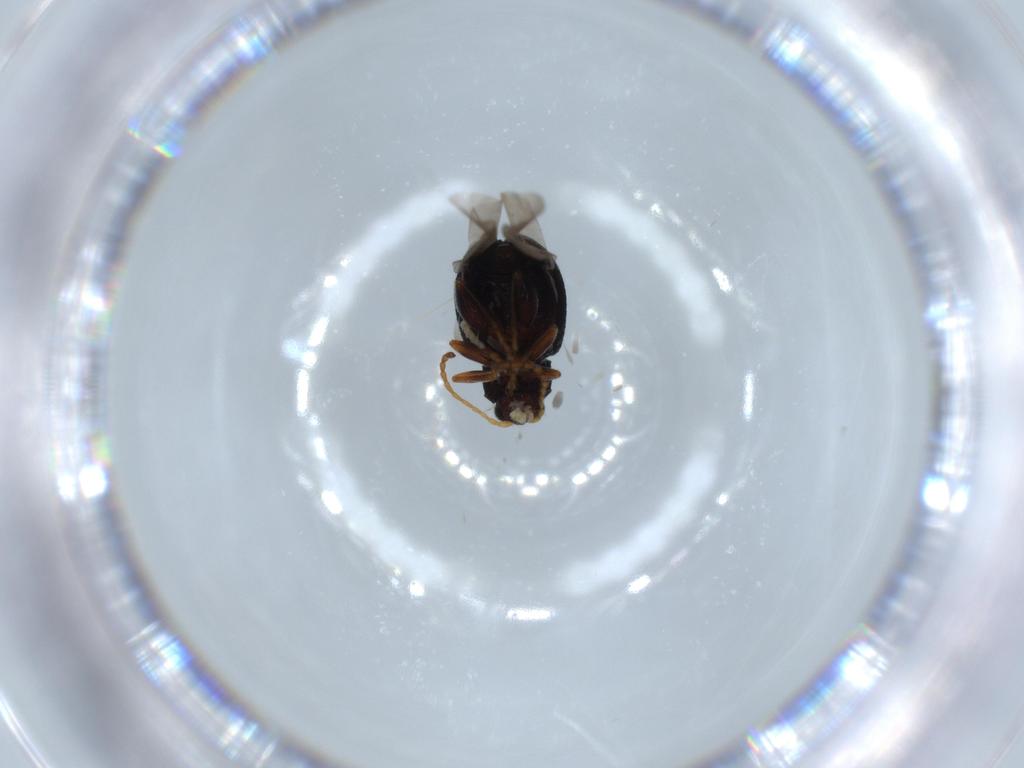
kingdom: Animalia
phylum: Arthropoda
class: Insecta
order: Coleoptera
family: Chrysomelidae
